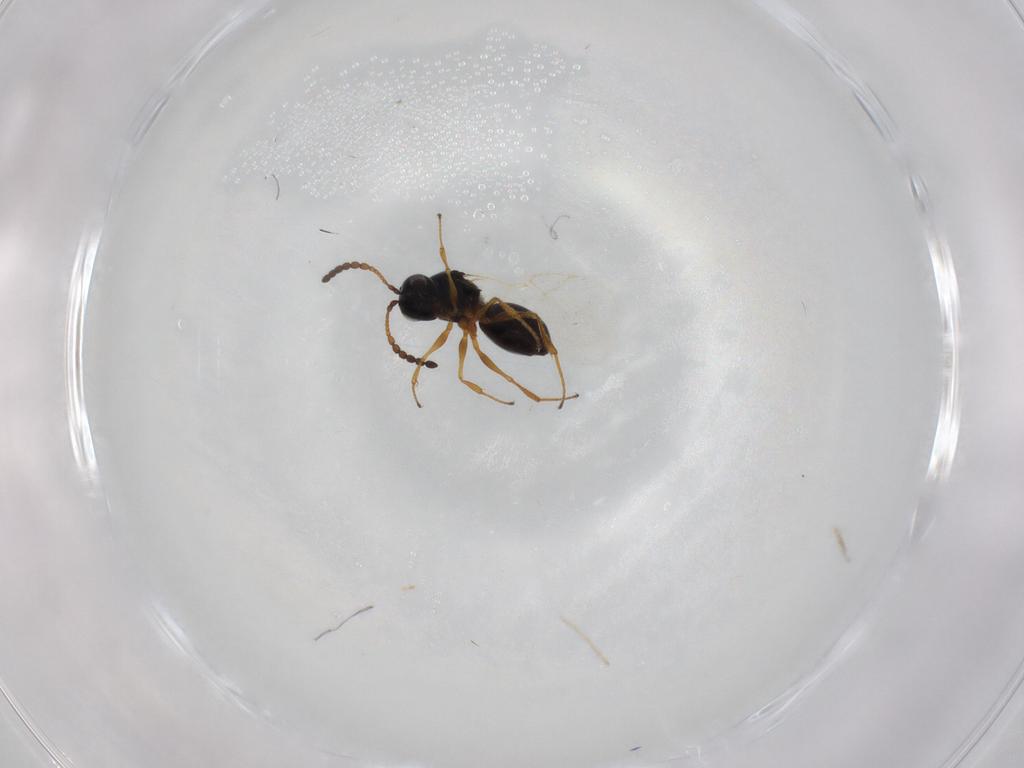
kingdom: Animalia
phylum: Arthropoda
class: Insecta
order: Hymenoptera
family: Figitidae
